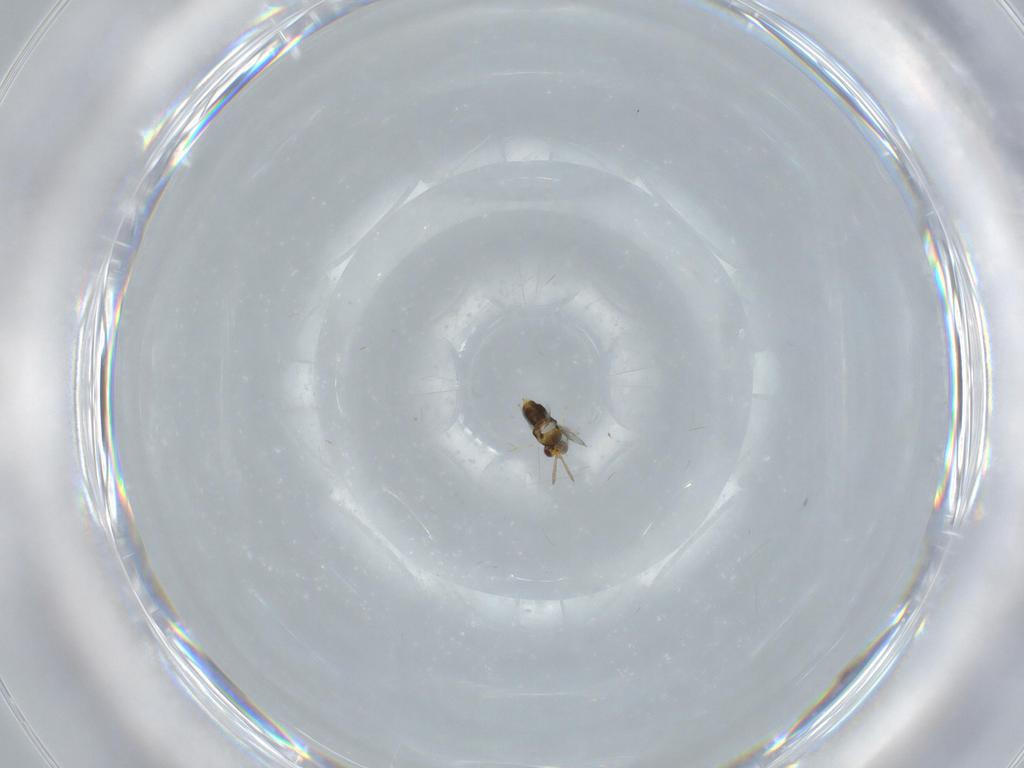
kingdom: Animalia
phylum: Arthropoda
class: Insecta
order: Hymenoptera
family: Aphelinidae
